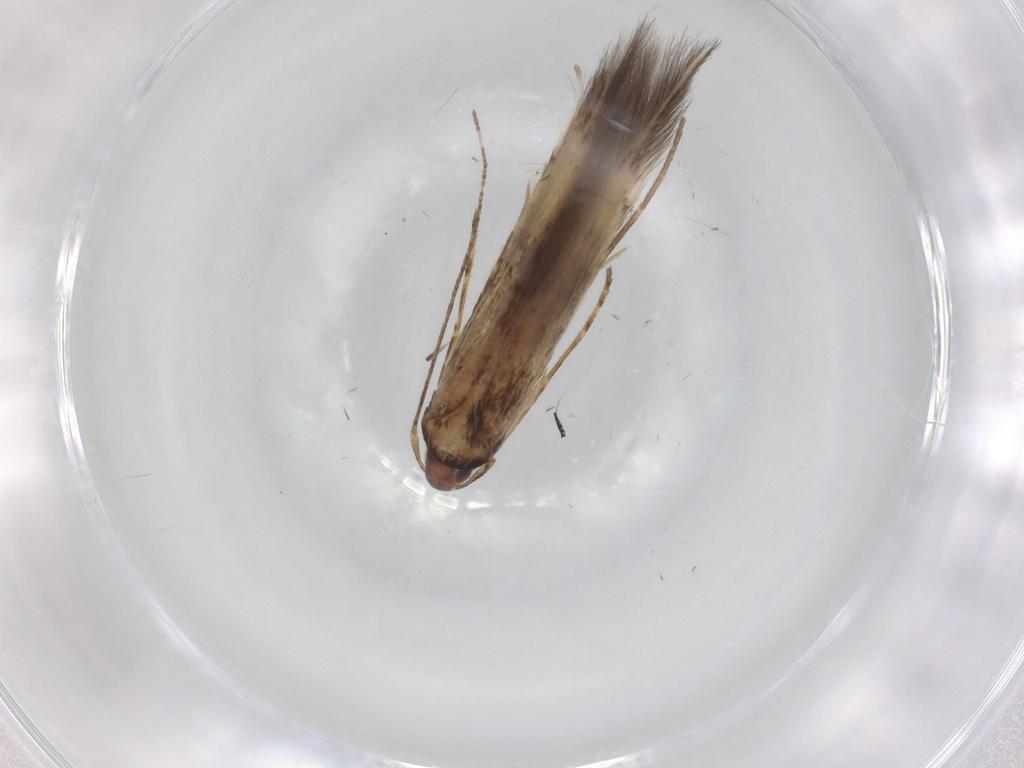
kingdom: Animalia
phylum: Arthropoda
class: Insecta
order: Lepidoptera
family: Cosmopterigidae
